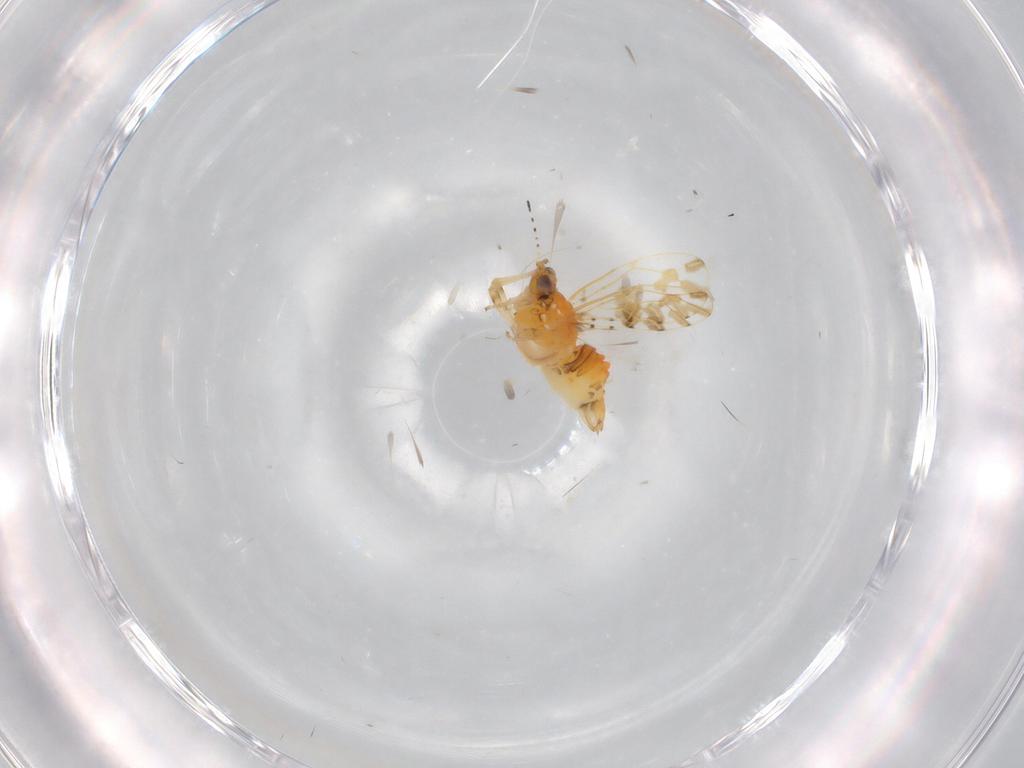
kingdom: Animalia
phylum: Arthropoda
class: Insecta
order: Hemiptera
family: Aphalaridae
